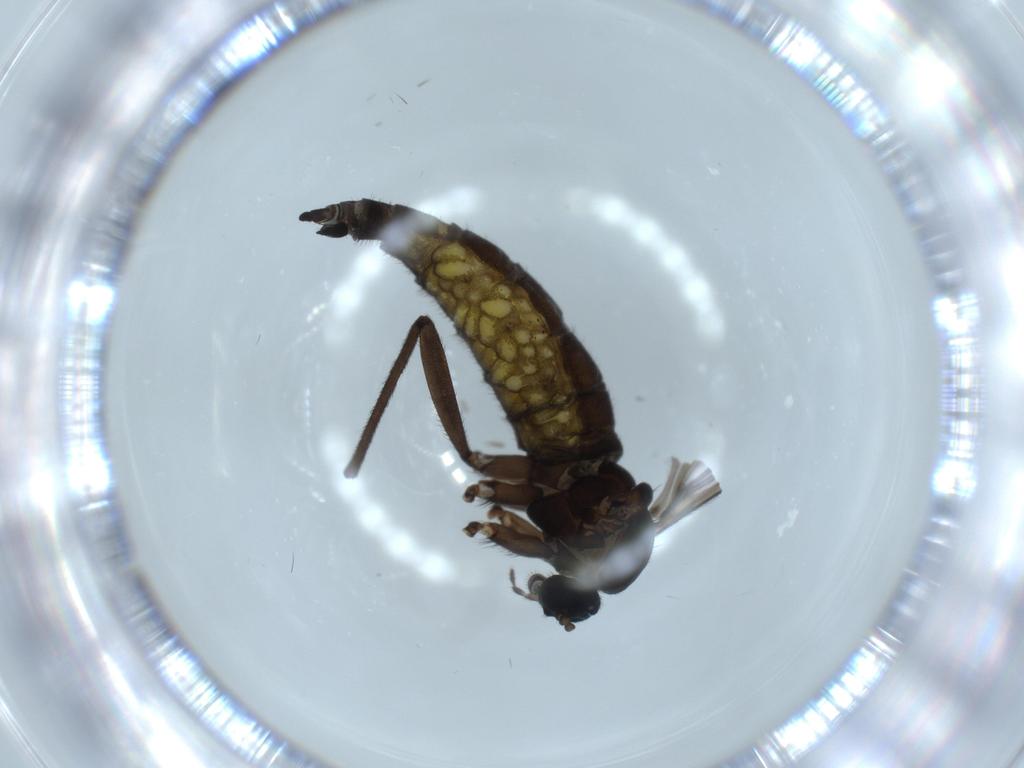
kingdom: Animalia
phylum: Arthropoda
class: Insecta
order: Diptera
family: Sciaridae
